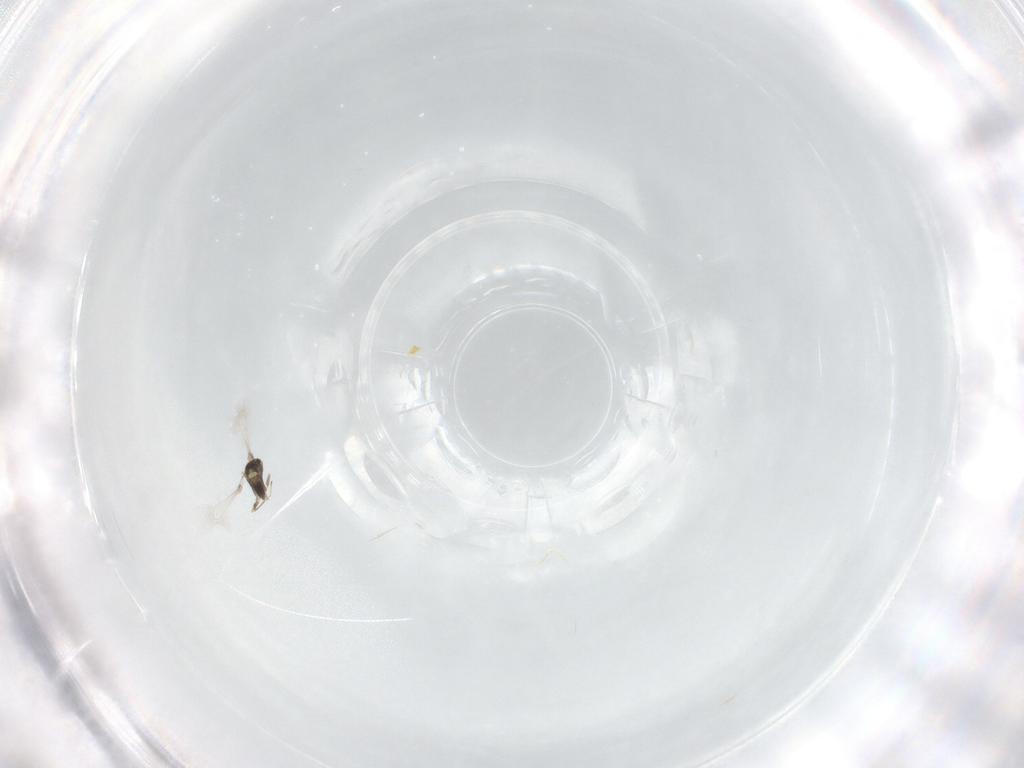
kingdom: Animalia
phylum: Arthropoda
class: Insecta
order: Hymenoptera
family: Mymaridae
